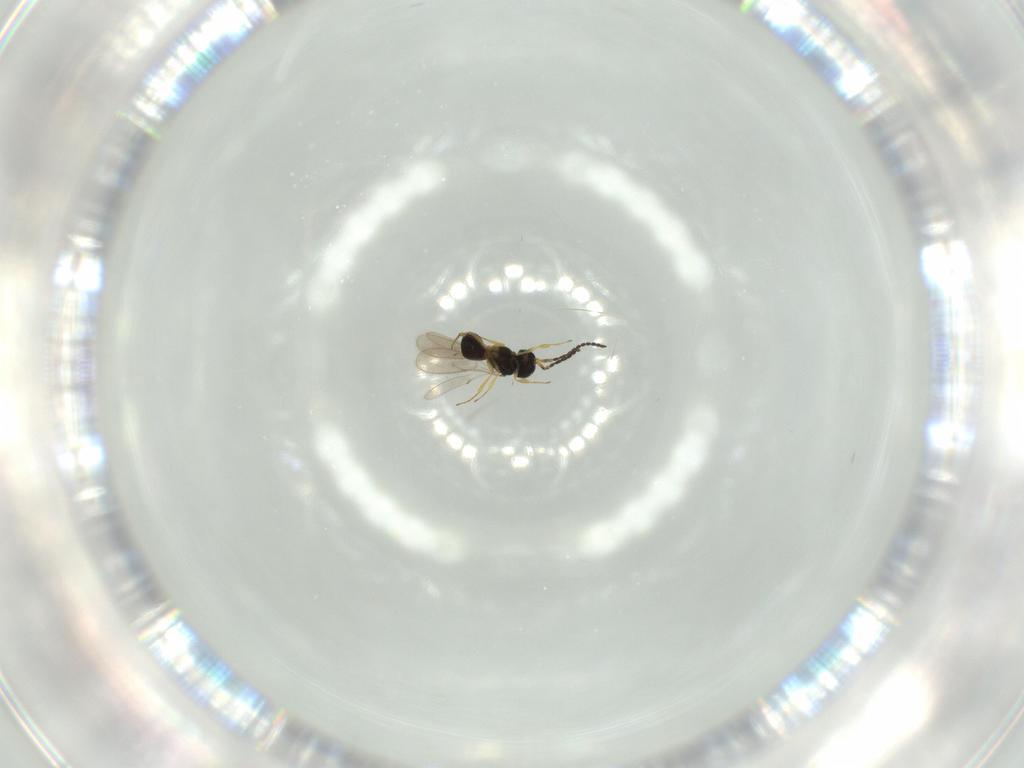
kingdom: Animalia
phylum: Arthropoda
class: Insecta
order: Hymenoptera
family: Scelionidae
